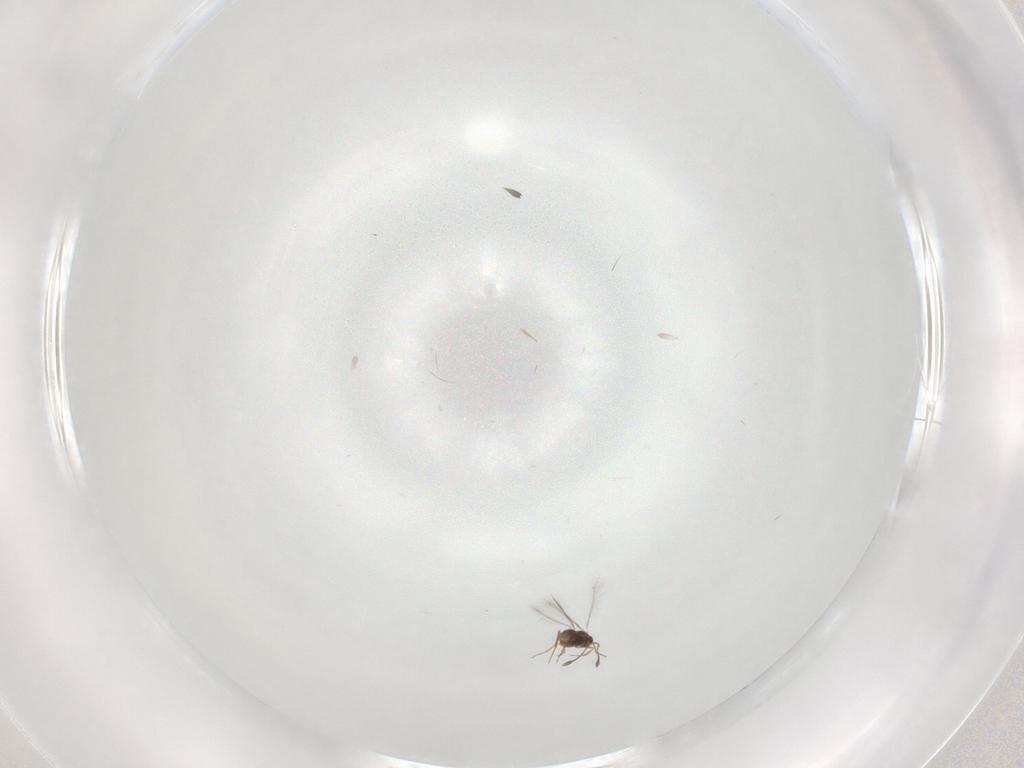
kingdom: Animalia
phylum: Arthropoda
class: Insecta
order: Hymenoptera
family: Mymaridae
